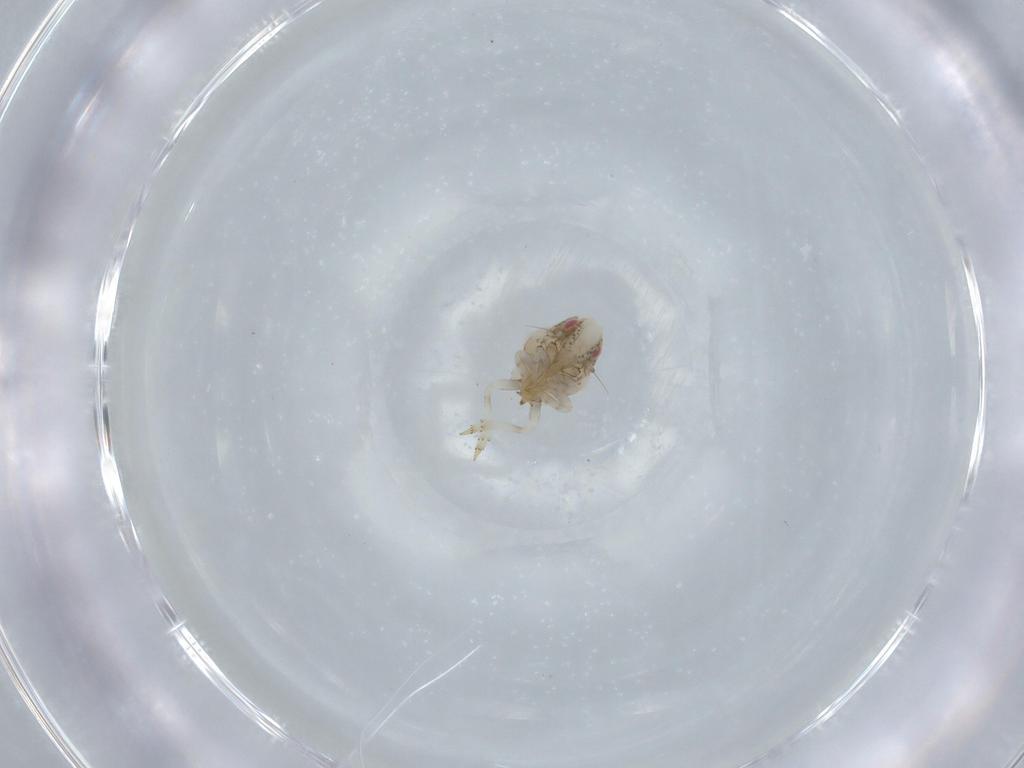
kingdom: Animalia
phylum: Arthropoda
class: Insecta
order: Hemiptera
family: Acanaloniidae
